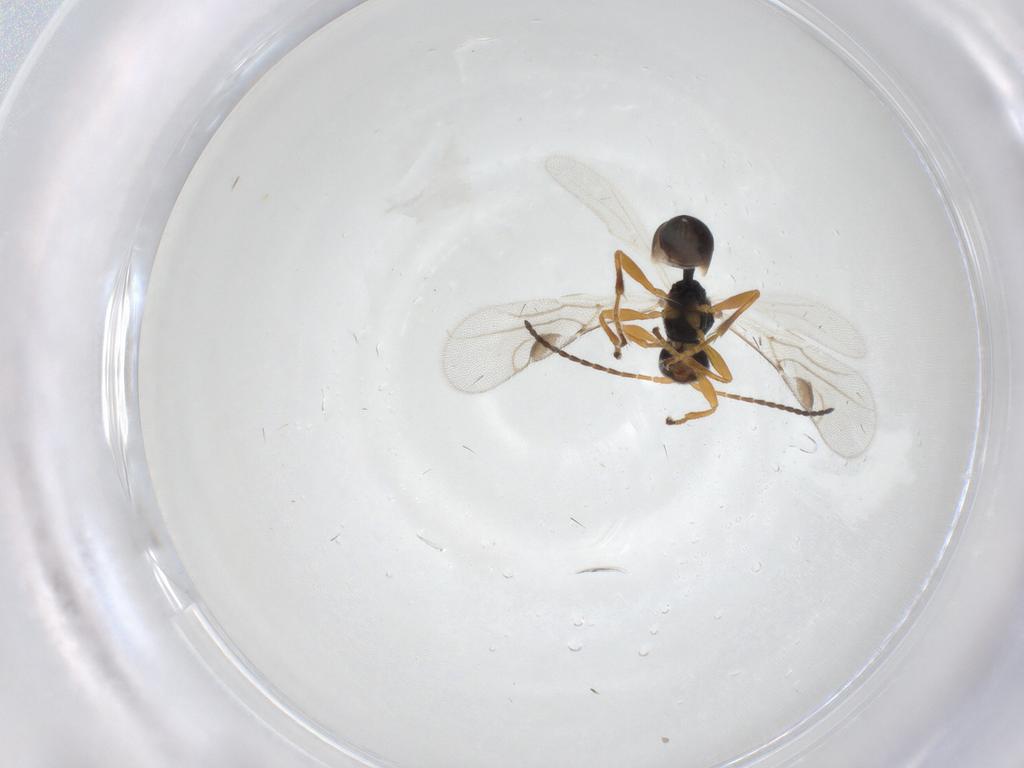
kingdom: Animalia
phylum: Arthropoda
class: Insecta
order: Hymenoptera
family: Braconidae
